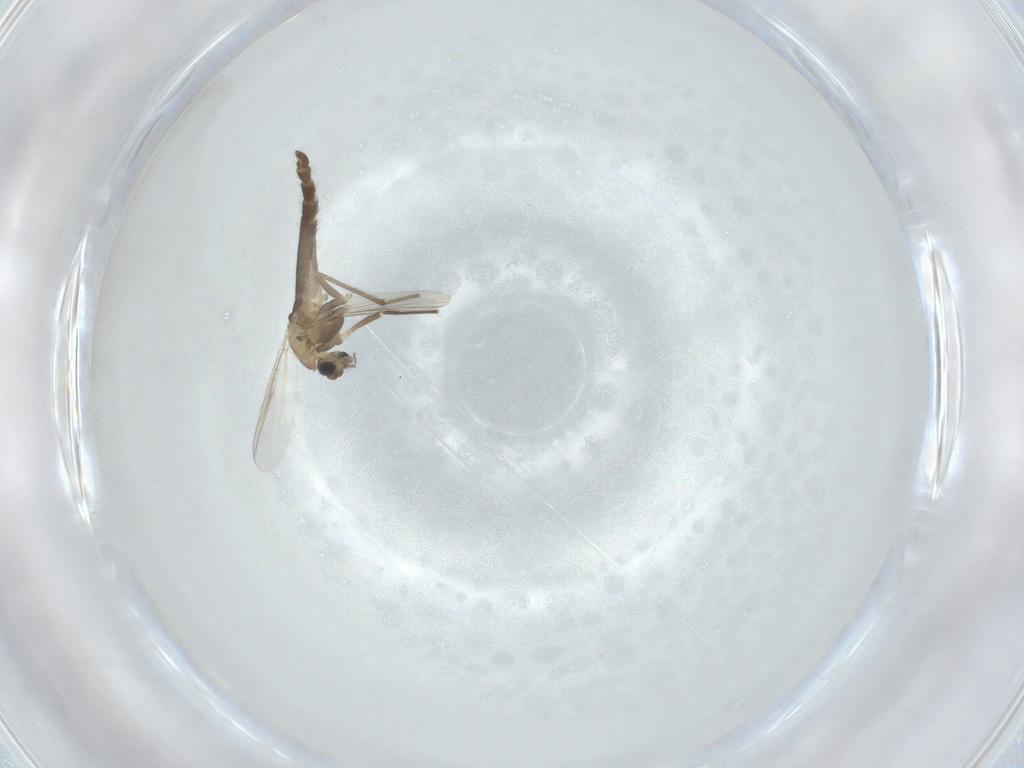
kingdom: Animalia
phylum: Arthropoda
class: Insecta
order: Diptera
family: Chironomidae
